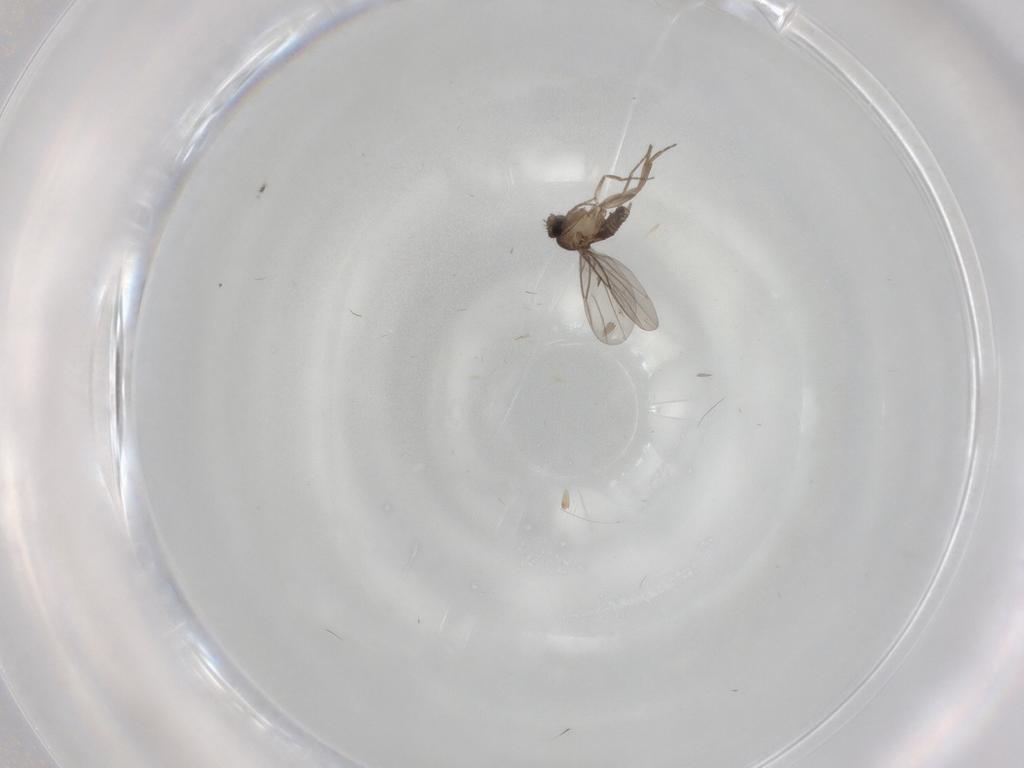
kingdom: Animalia
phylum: Arthropoda
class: Insecta
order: Diptera
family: Phoridae
